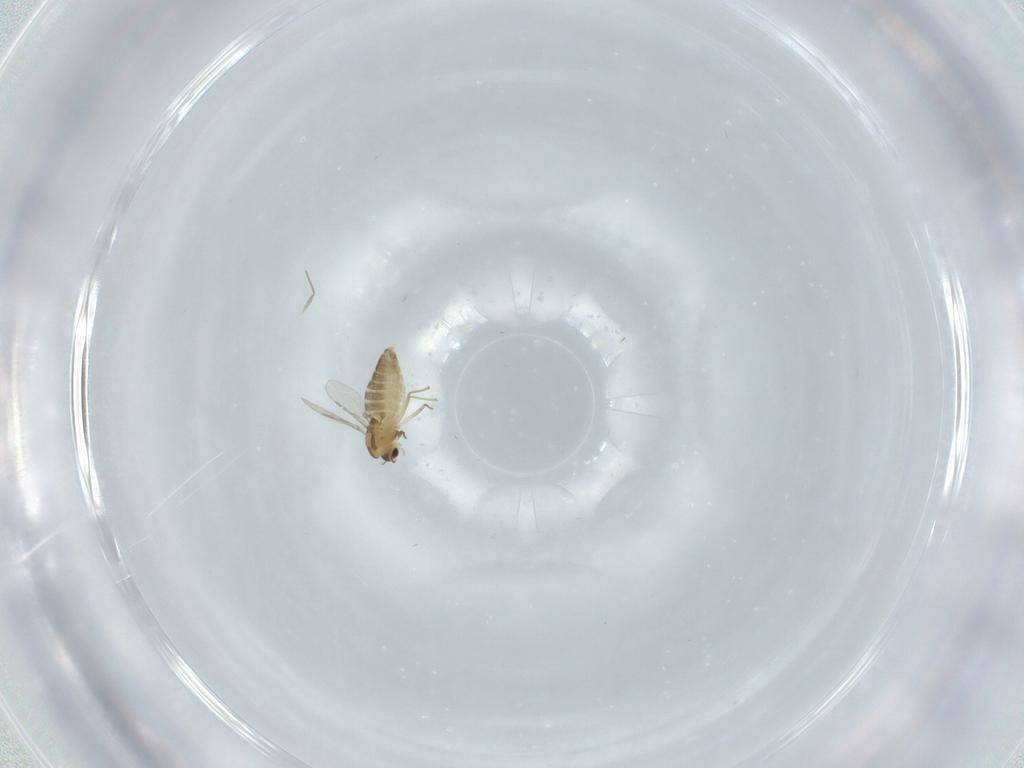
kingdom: Animalia
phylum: Arthropoda
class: Insecta
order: Diptera
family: Chironomidae
